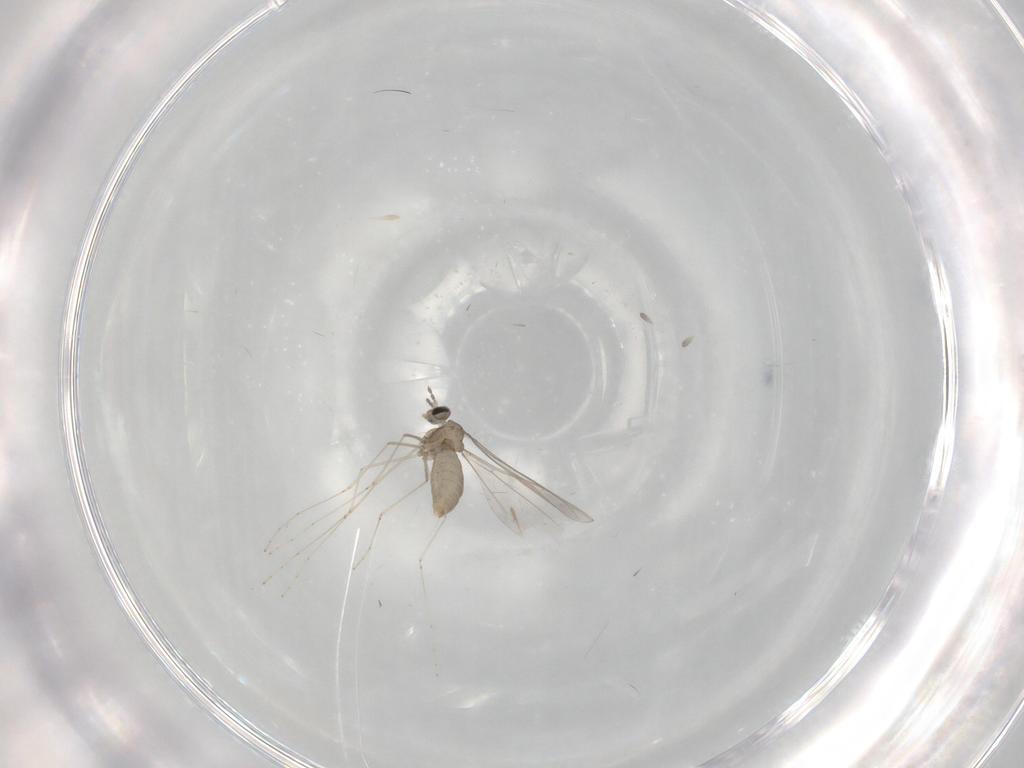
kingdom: Animalia
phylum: Arthropoda
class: Insecta
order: Diptera
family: Cecidomyiidae
